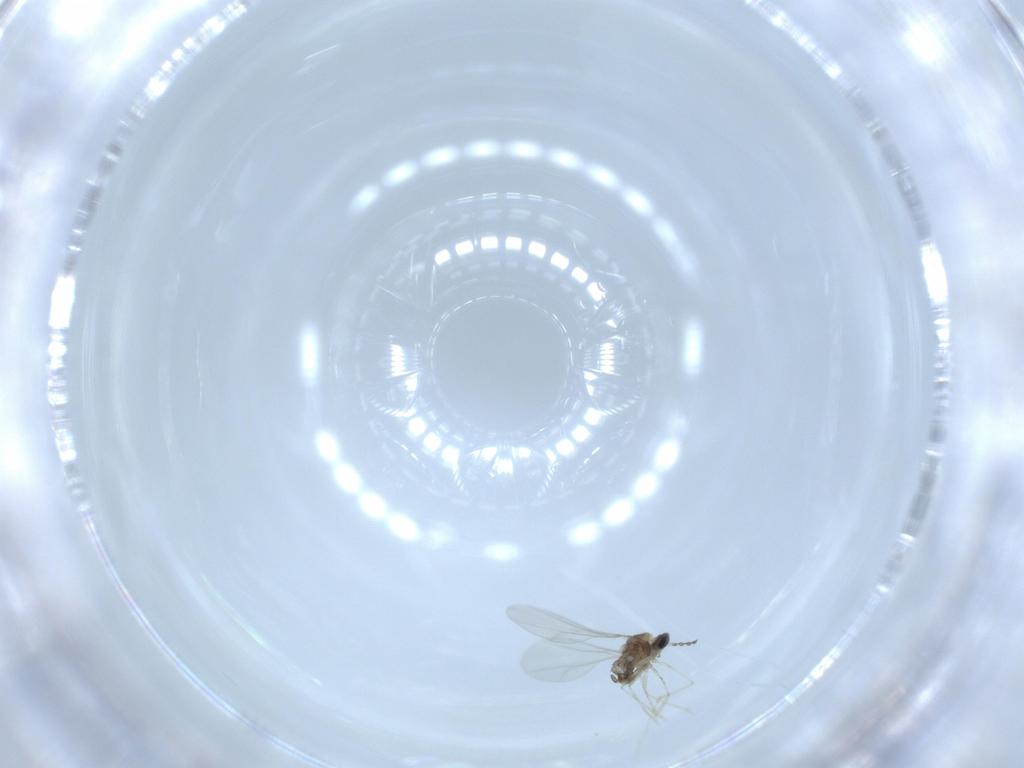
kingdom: Animalia
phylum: Arthropoda
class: Insecta
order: Diptera
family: Cecidomyiidae
